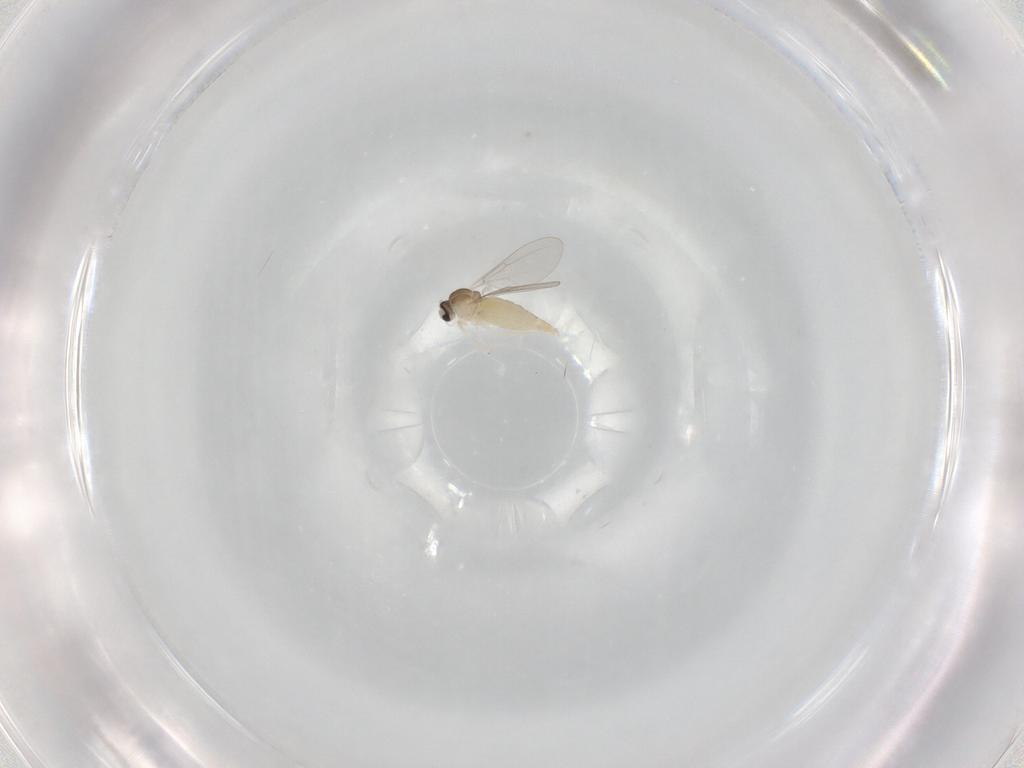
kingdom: Animalia
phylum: Arthropoda
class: Insecta
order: Diptera
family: Cecidomyiidae
